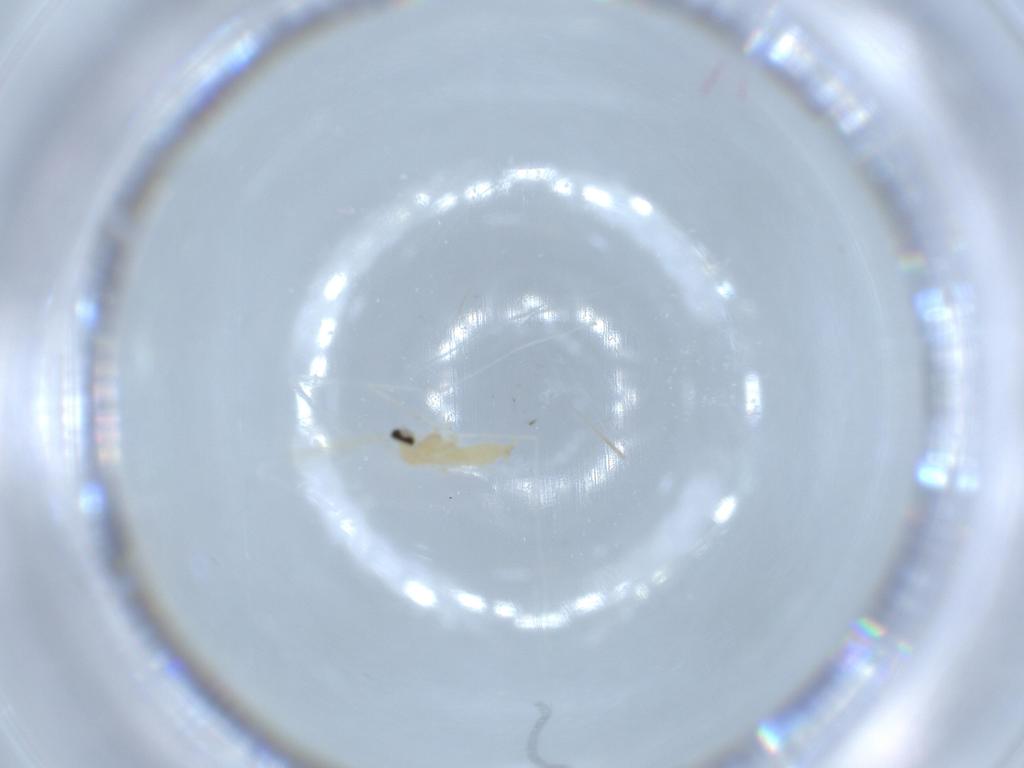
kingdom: Animalia
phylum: Arthropoda
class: Insecta
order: Diptera
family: Cecidomyiidae
